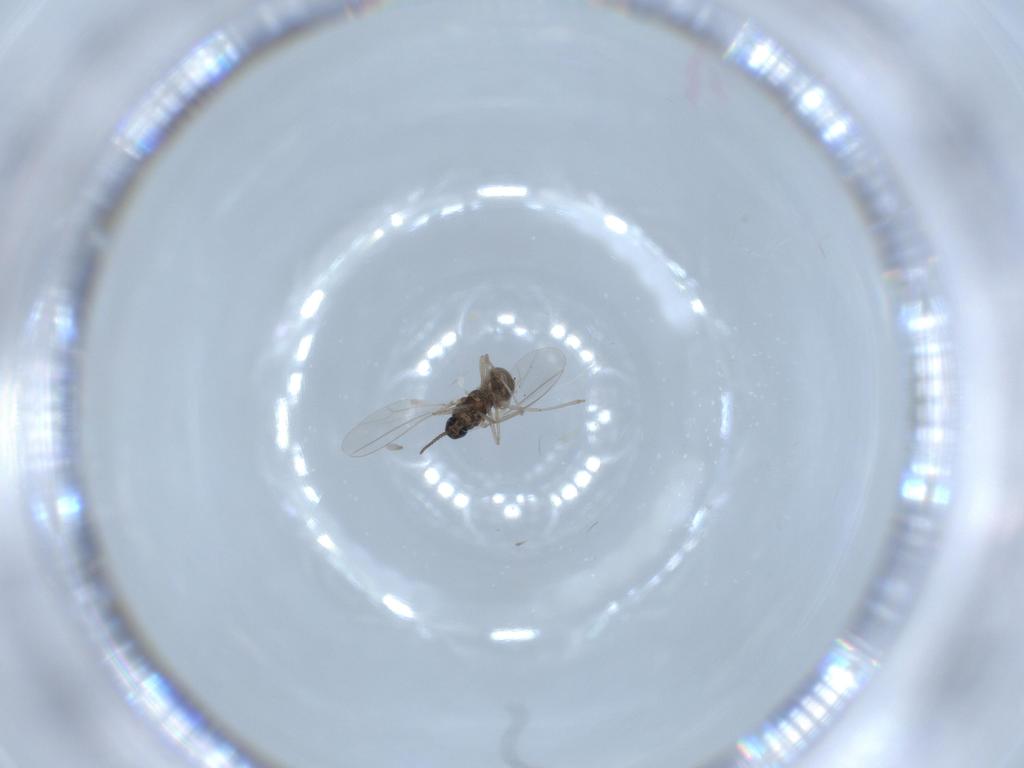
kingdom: Animalia
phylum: Arthropoda
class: Insecta
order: Diptera
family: Cecidomyiidae
